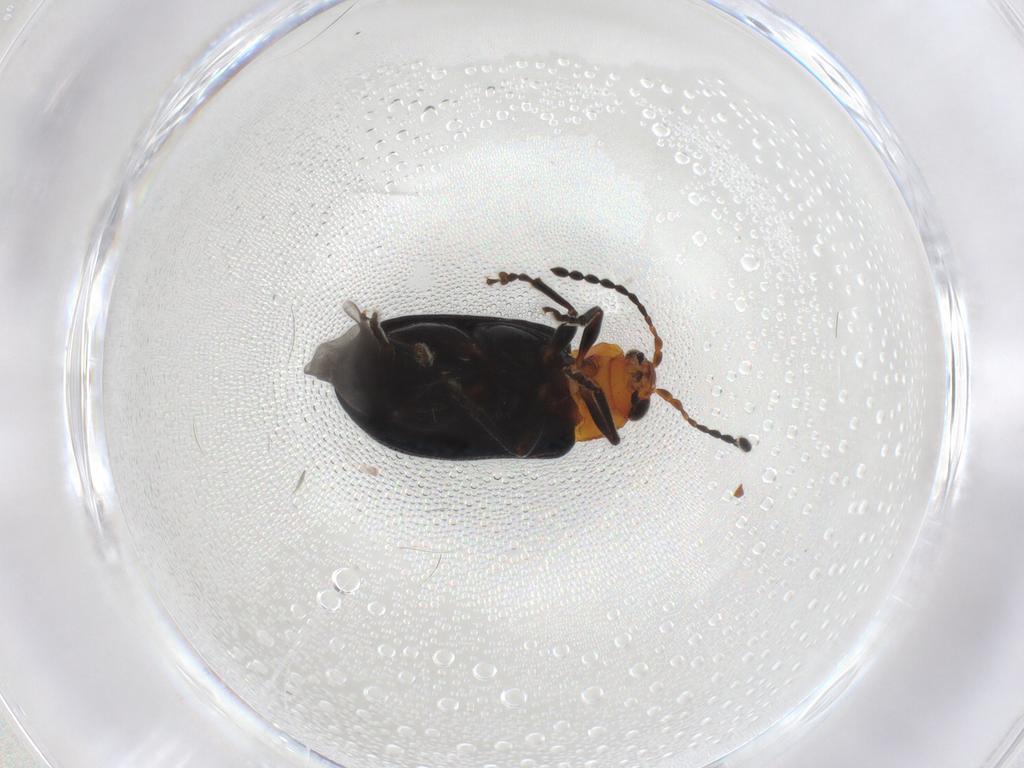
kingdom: Animalia
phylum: Arthropoda
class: Insecta
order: Coleoptera
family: Chrysomelidae
